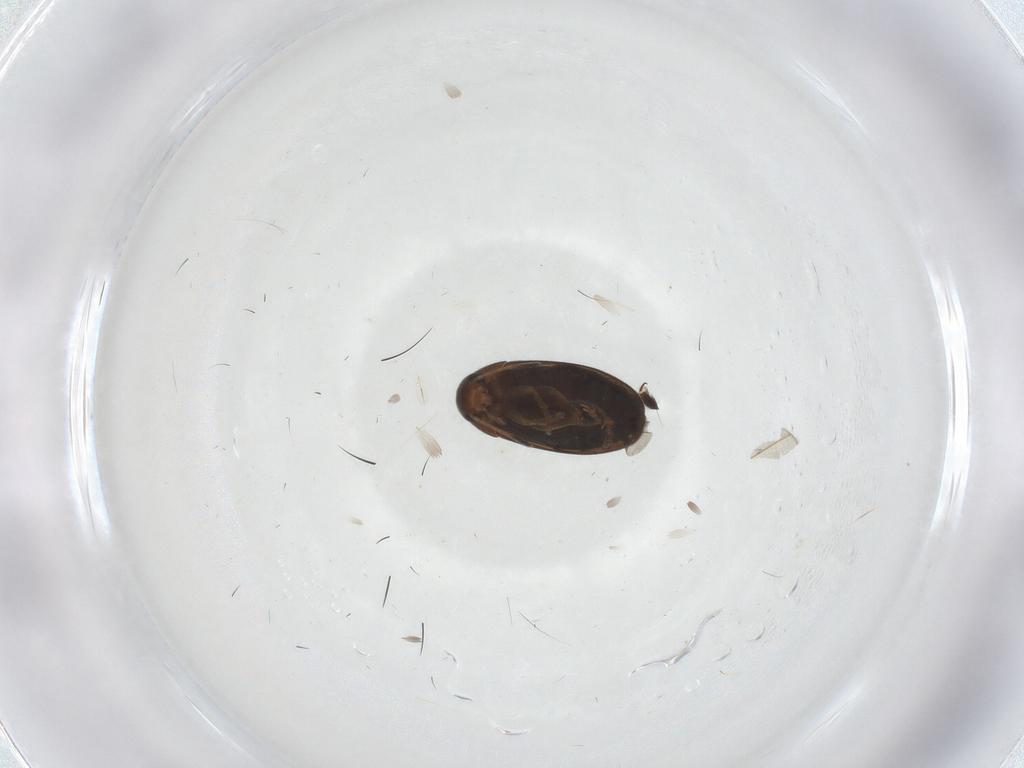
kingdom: Animalia
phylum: Arthropoda
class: Insecta
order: Coleoptera
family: Scraptiidae
